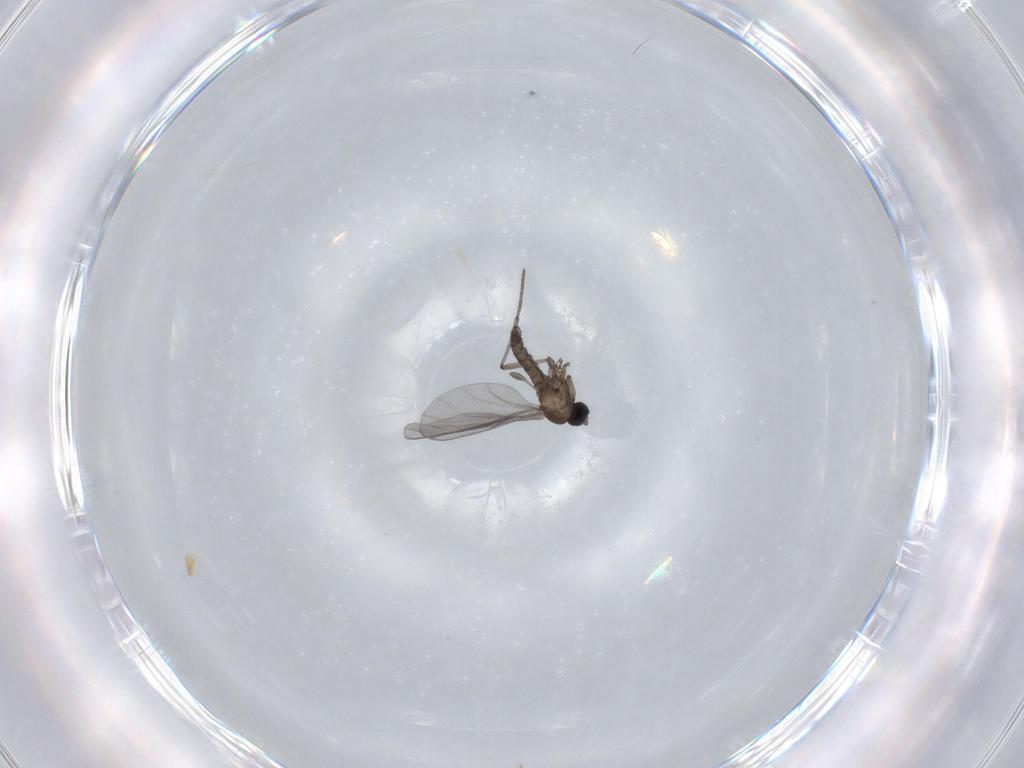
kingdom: Animalia
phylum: Arthropoda
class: Insecta
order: Diptera
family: Sciaridae
